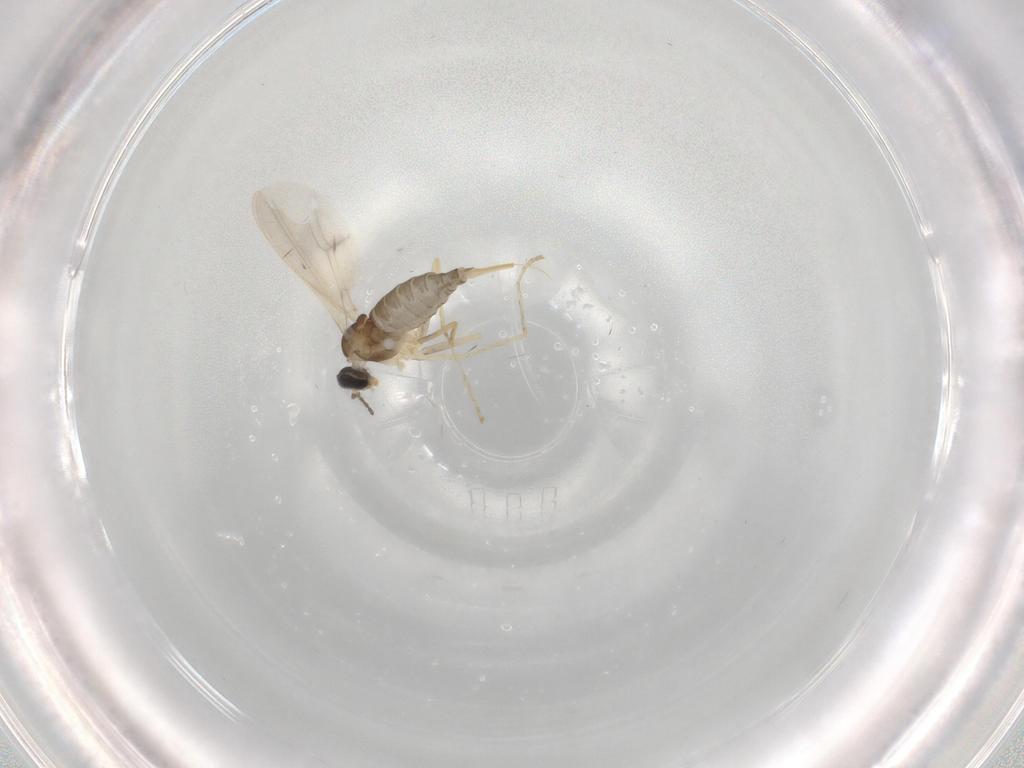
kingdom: Animalia
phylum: Arthropoda
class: Insecta
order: Diptera
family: Cecidomyiidae
